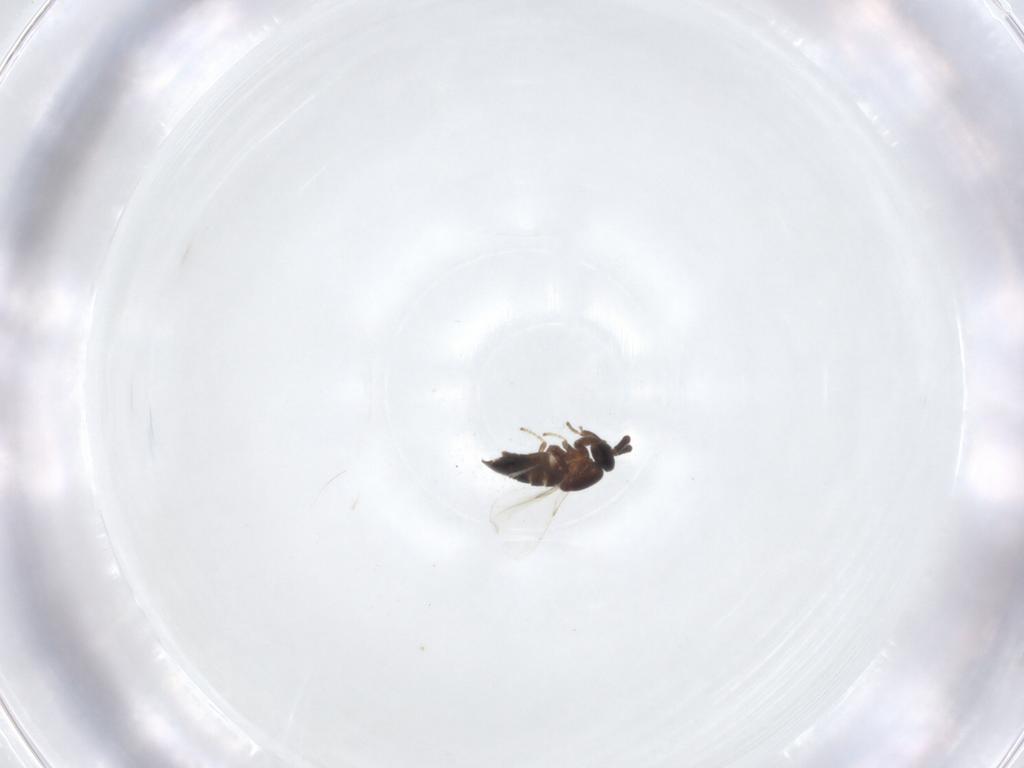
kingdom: Animalia
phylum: Arthropoda
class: Insecta
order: Diptera
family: Scatopsidae
